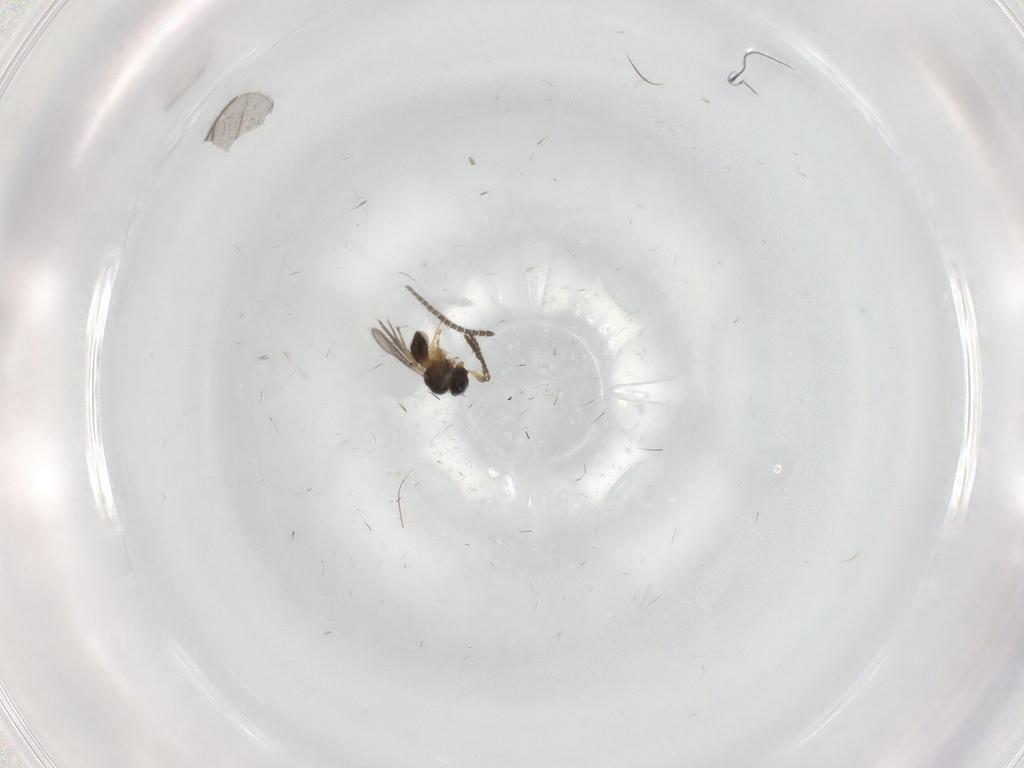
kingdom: Animalia
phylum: Arthropoda
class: Insecta
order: Hymenoptera
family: Scelionidae
